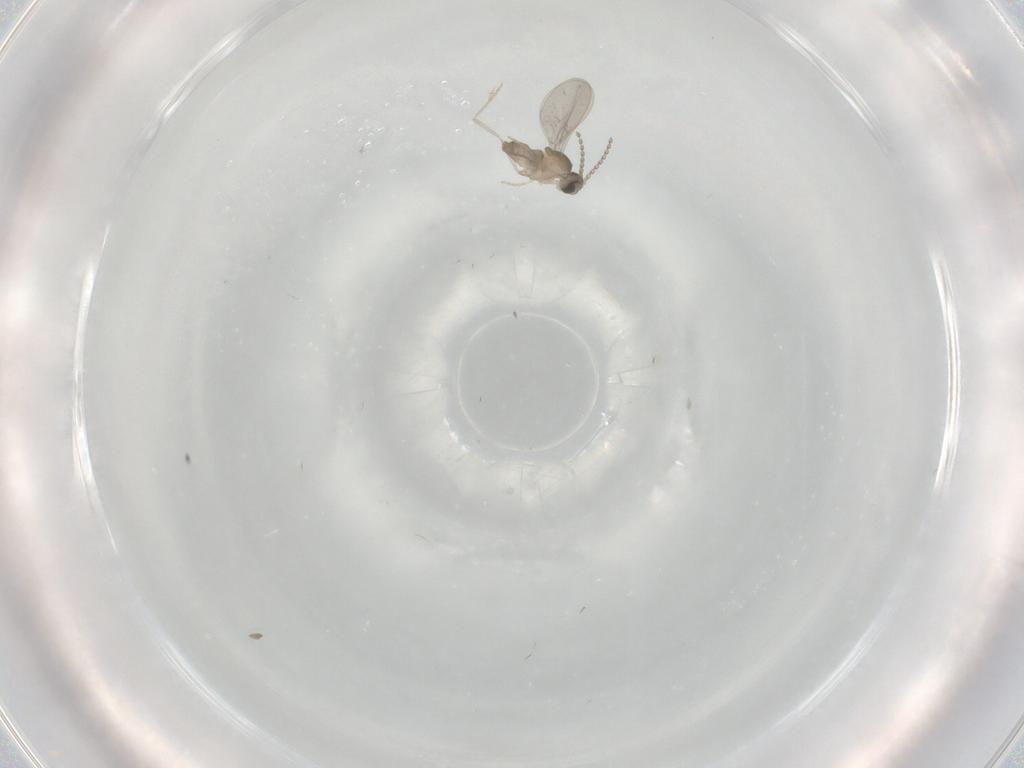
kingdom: Animalia
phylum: Arthropoda
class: Insecta
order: Diptera
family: Cecidomyiidae
